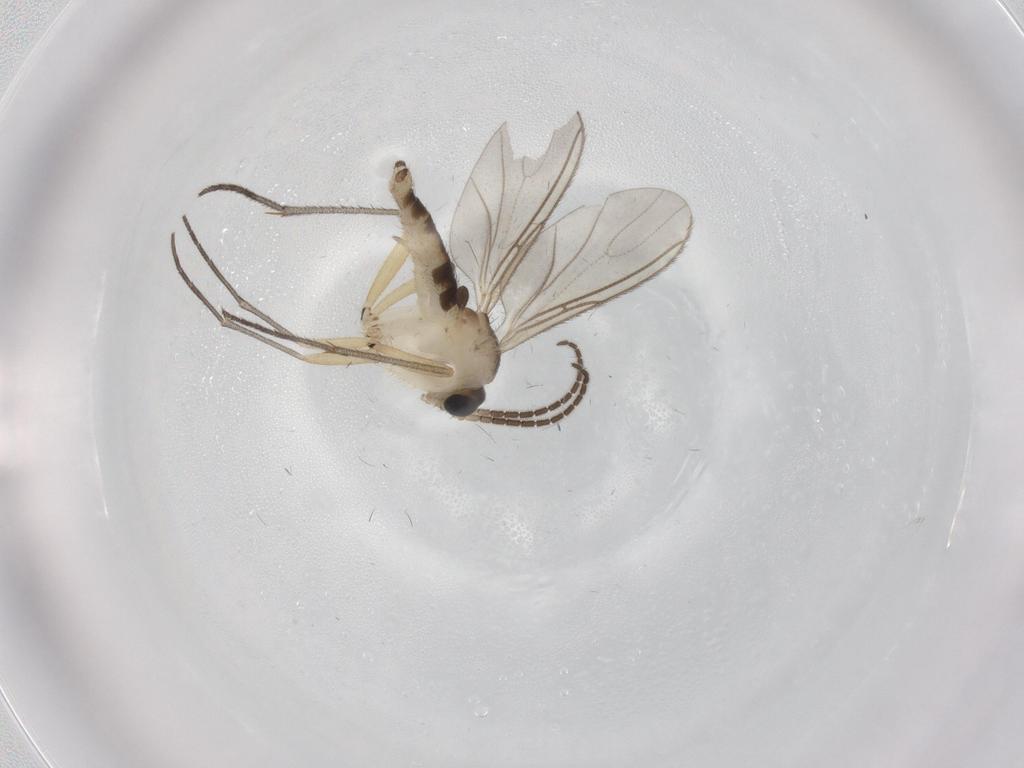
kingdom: Animalia
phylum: Arthropoda
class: Insecta
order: Diptera
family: Sciaridae
